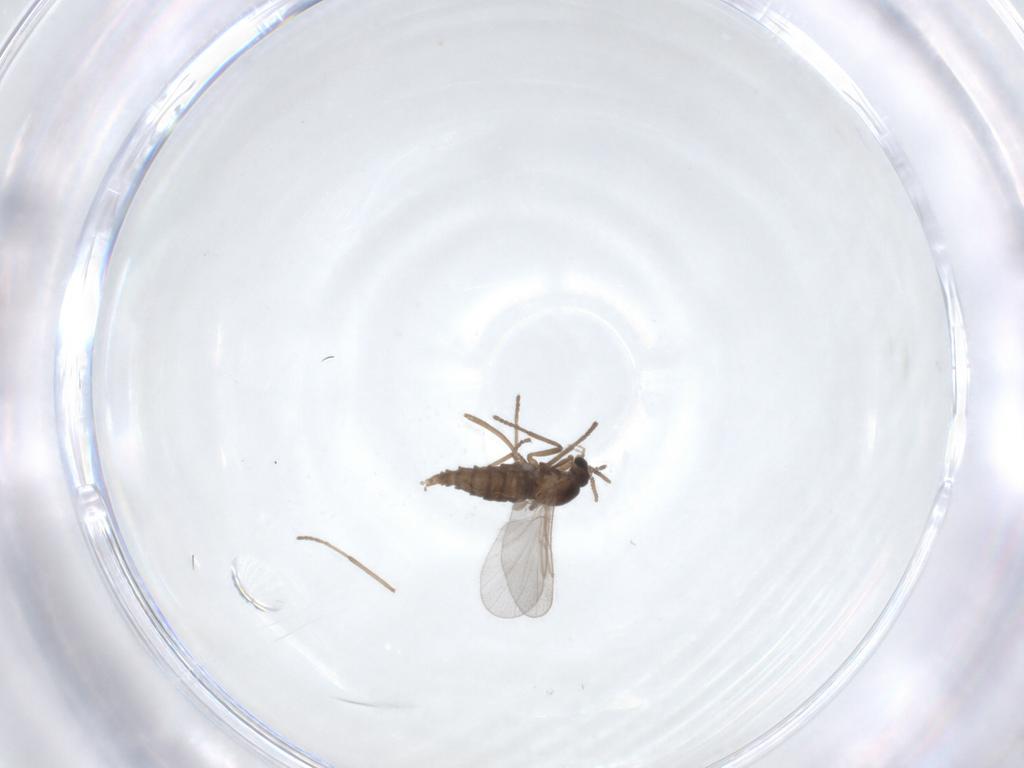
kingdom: Animalia
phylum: Arthropoda
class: Insecta
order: Diptera
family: Cecidomyiidae
